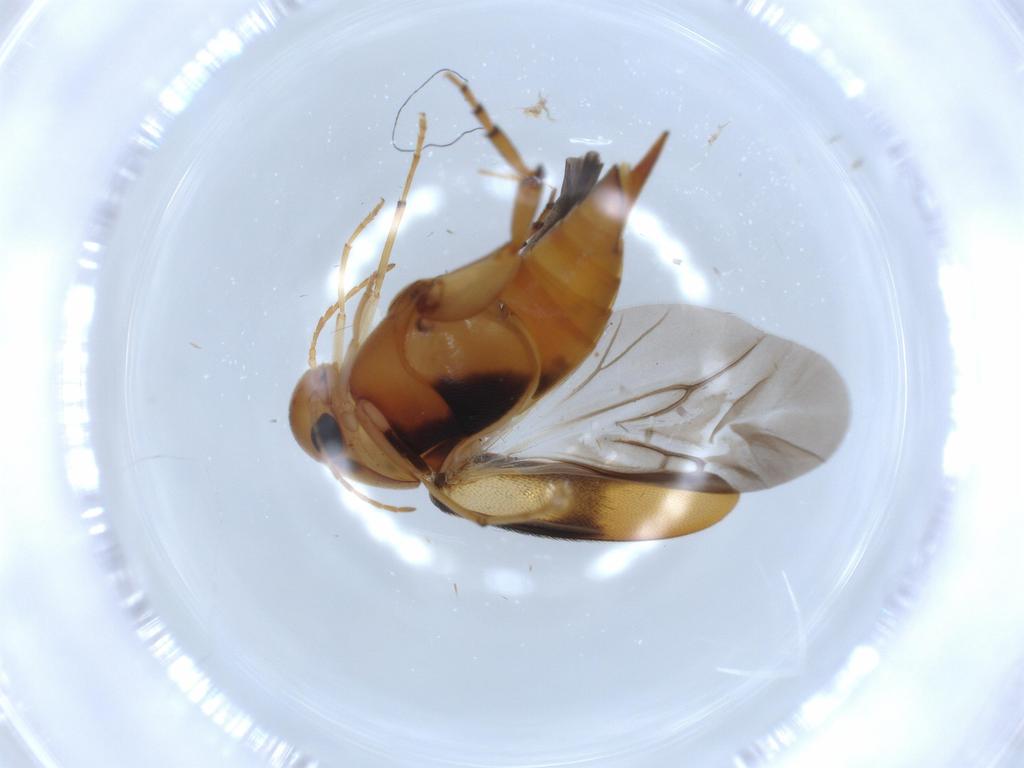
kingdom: Animalia
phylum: Arthropoda
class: Insecta
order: Coleoptera
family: Mordellidae
